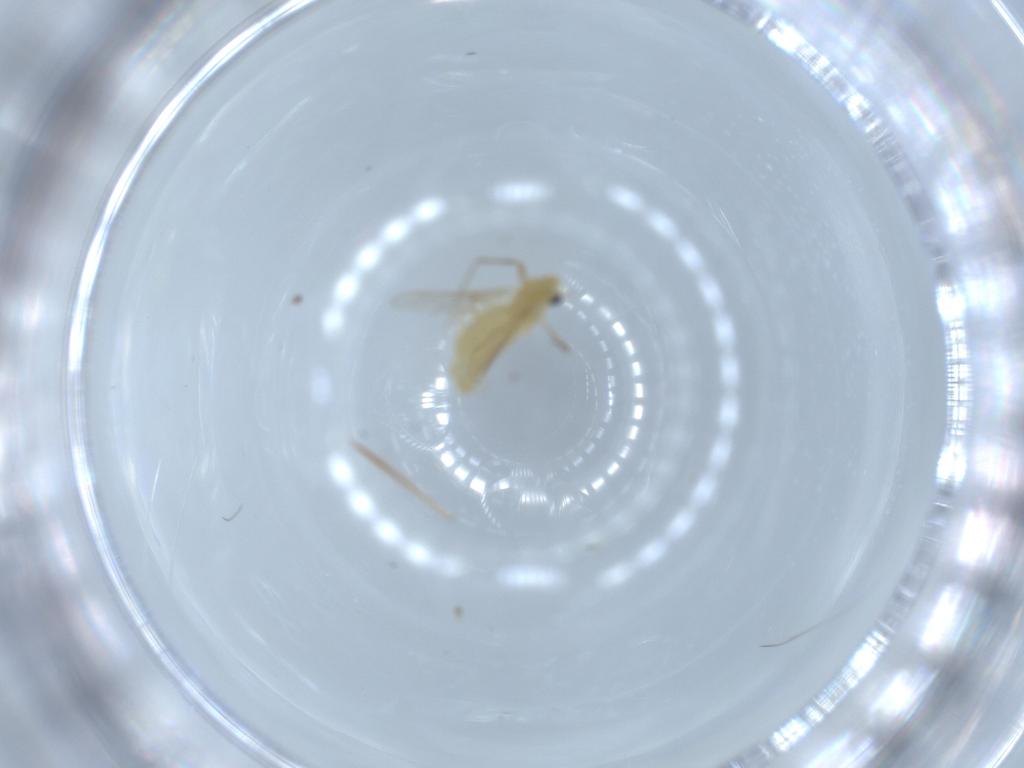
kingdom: Animalia
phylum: Arthropoda
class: Insecta
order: Diptera
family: Chironomidae
